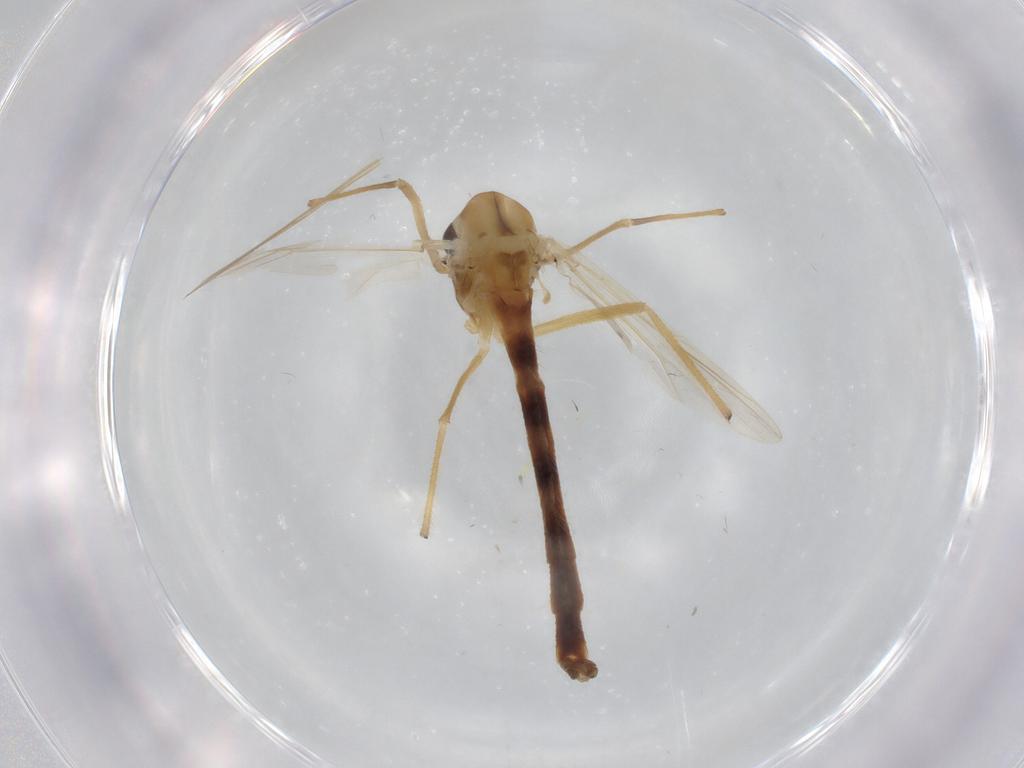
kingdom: Animalia
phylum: Arthropoda
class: Insecta
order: Diptera
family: Chironomidae
